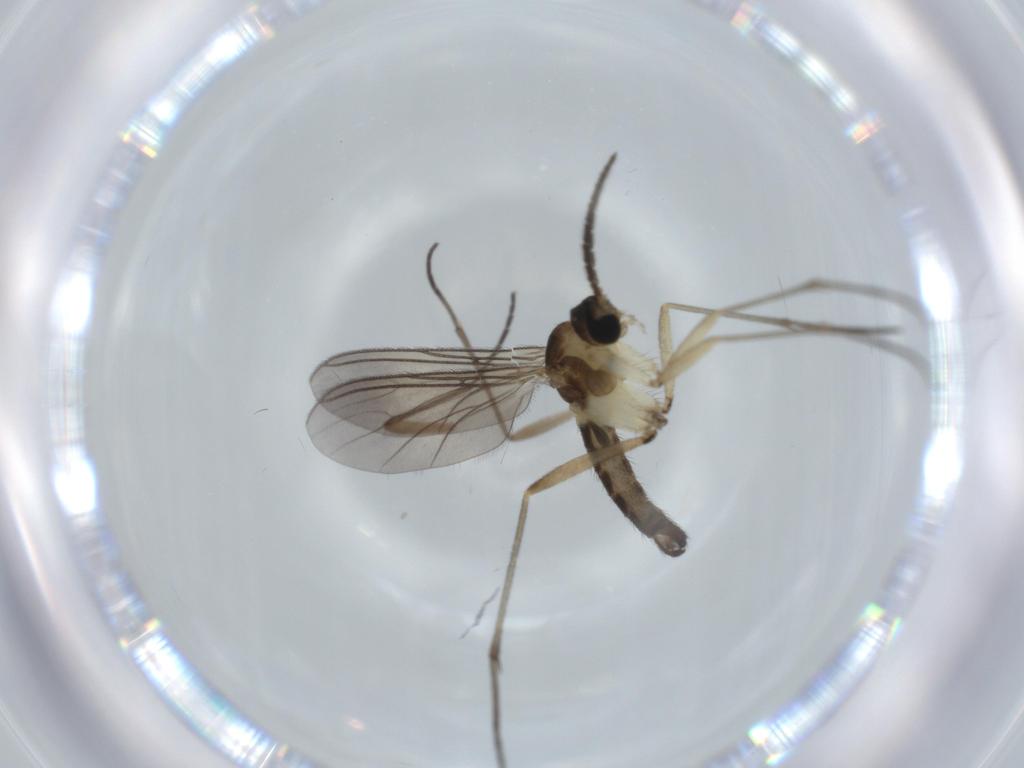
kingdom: Animalia
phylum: Arthropoda
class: Insecta
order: Diptera
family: Sciaridae
